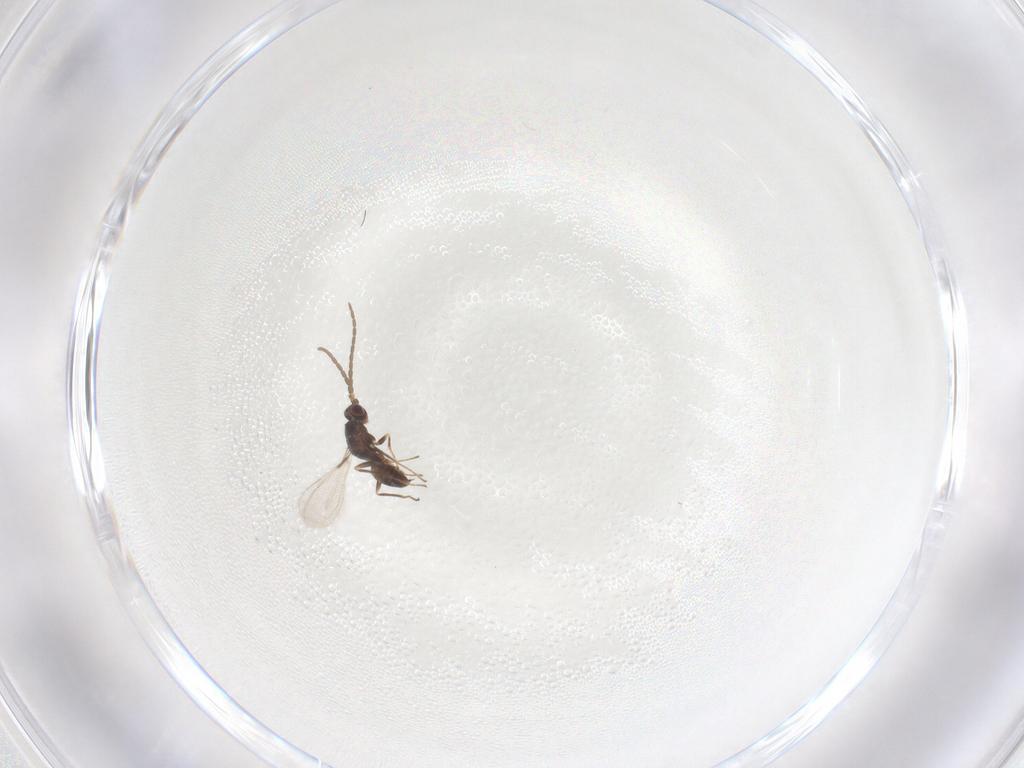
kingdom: Animalia
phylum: Arthropoda
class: Insecta
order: Hymenoptera
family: Mymaridae
